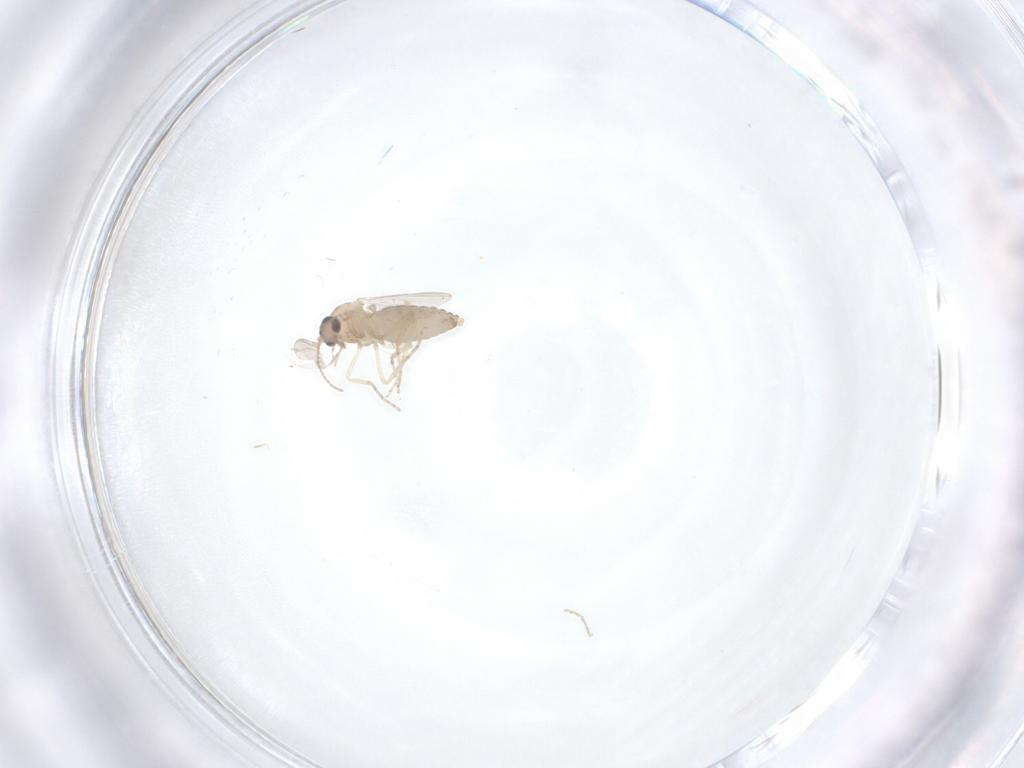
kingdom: Animalia
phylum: Arthropoda
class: Insecta
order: Diptera
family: Ceratopogonidae
